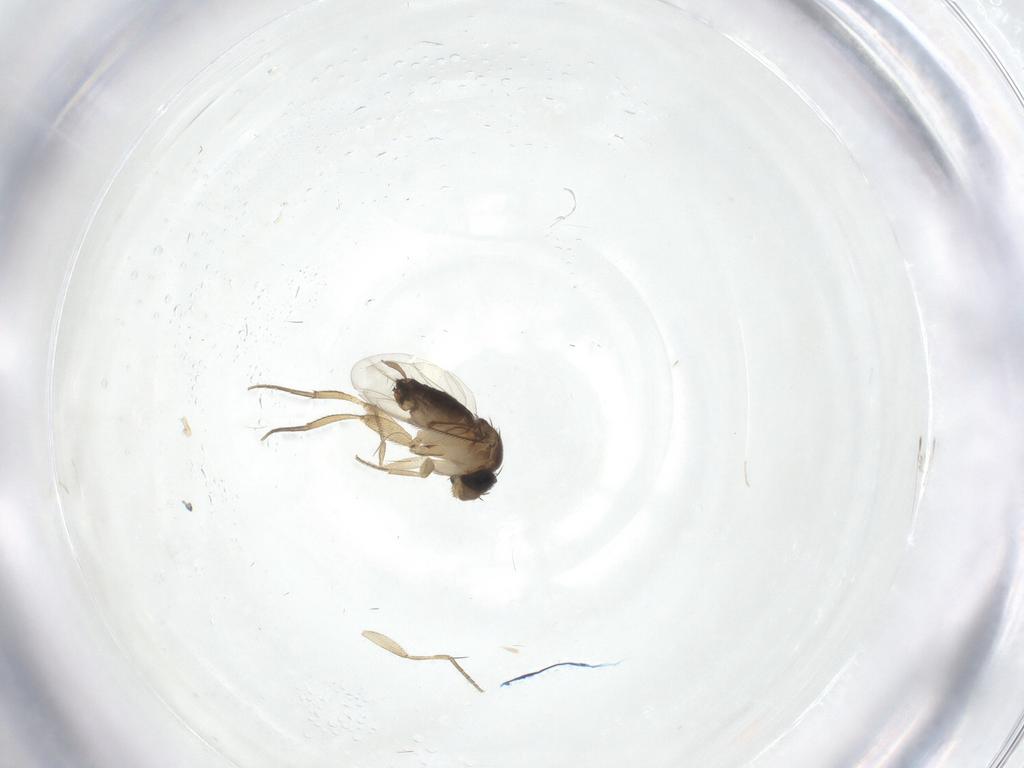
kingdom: Animalia
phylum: Arthropoda
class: Insecta
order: Diptera
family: Phoridae
